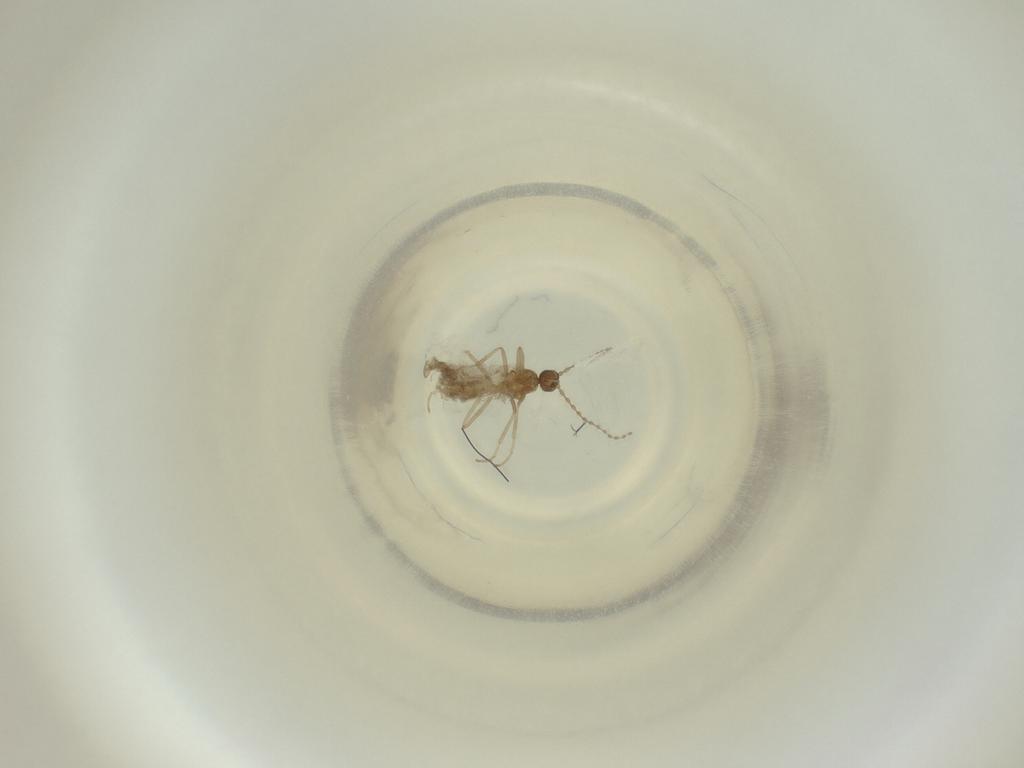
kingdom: Animalia
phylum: Arthropoda
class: Insecta
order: Diptera
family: Cecidomyiidae
